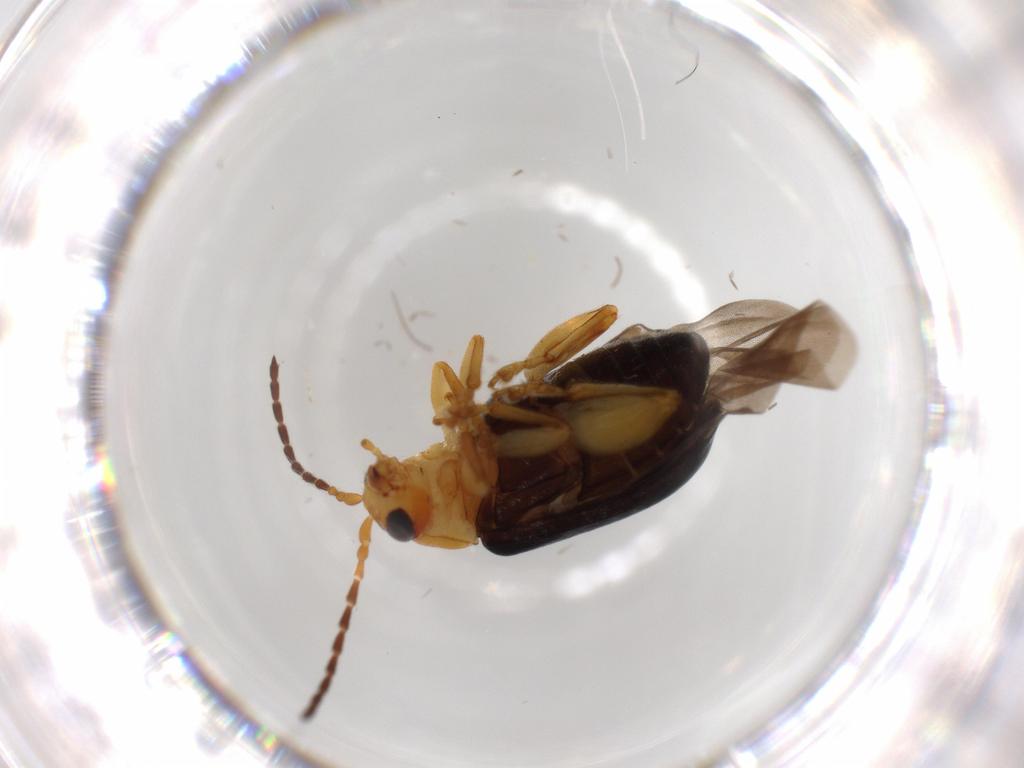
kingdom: Animalia
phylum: Arthropoda
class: Insecta
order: Coleoptera
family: Chrysomelidae
